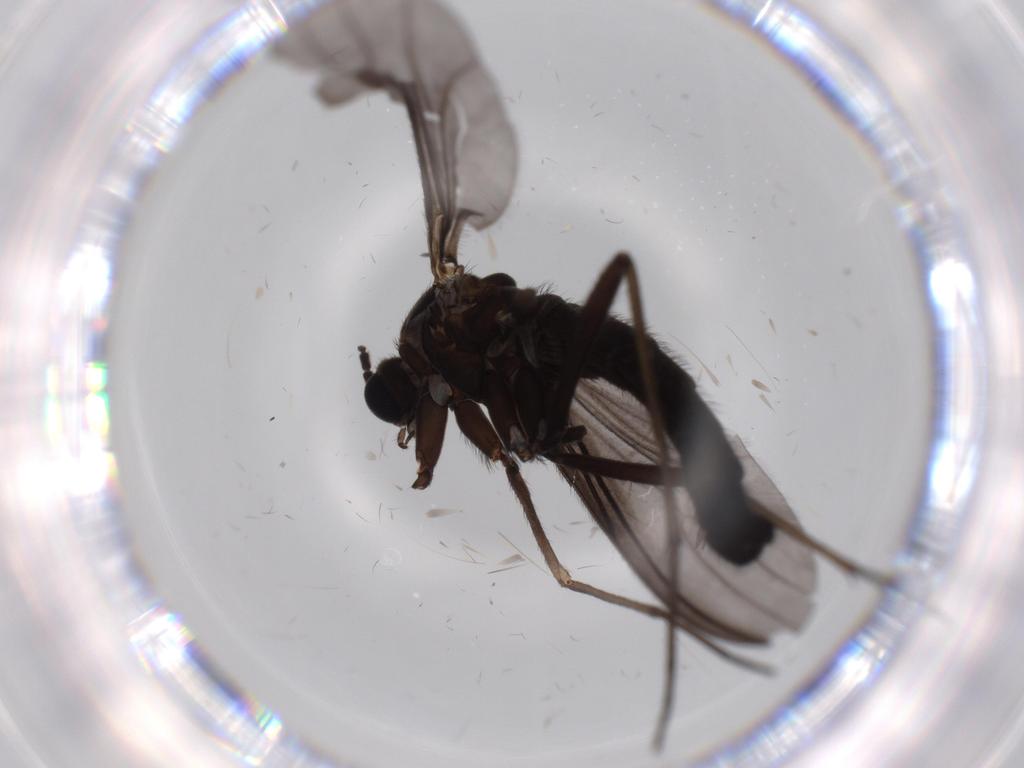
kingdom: Animalia
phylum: Arthropoda
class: Insecta
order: Diptera
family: Sciaridae
